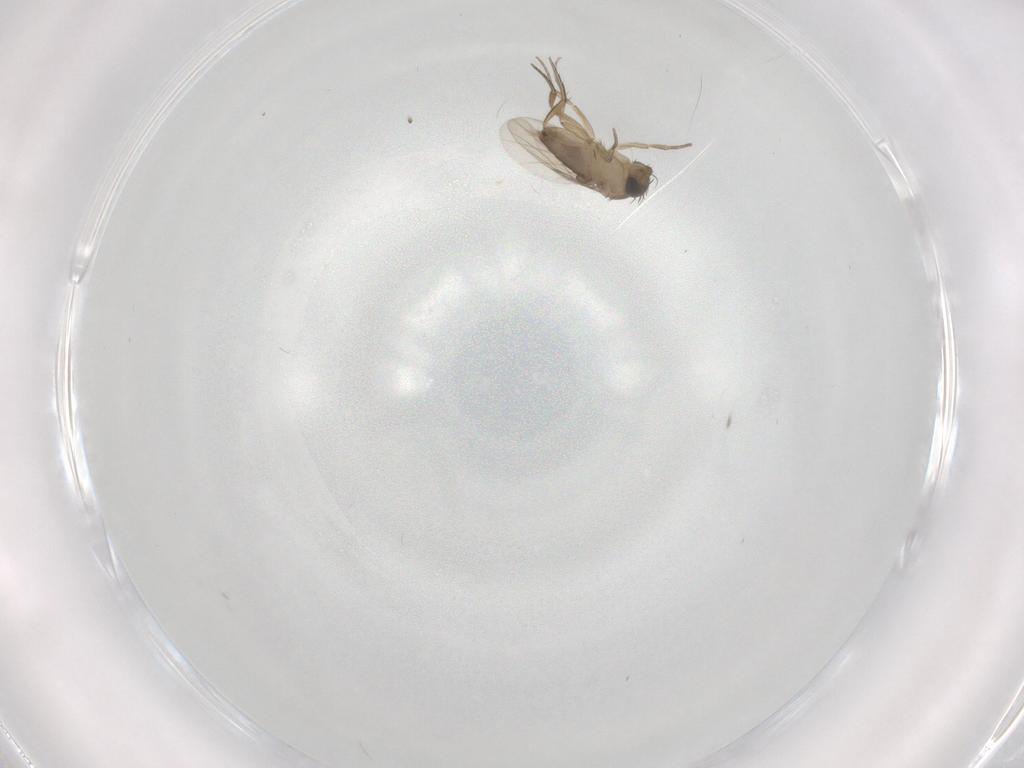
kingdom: Animalia
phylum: Arthropoda
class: Insecta
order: Diptera
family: Phoridae
